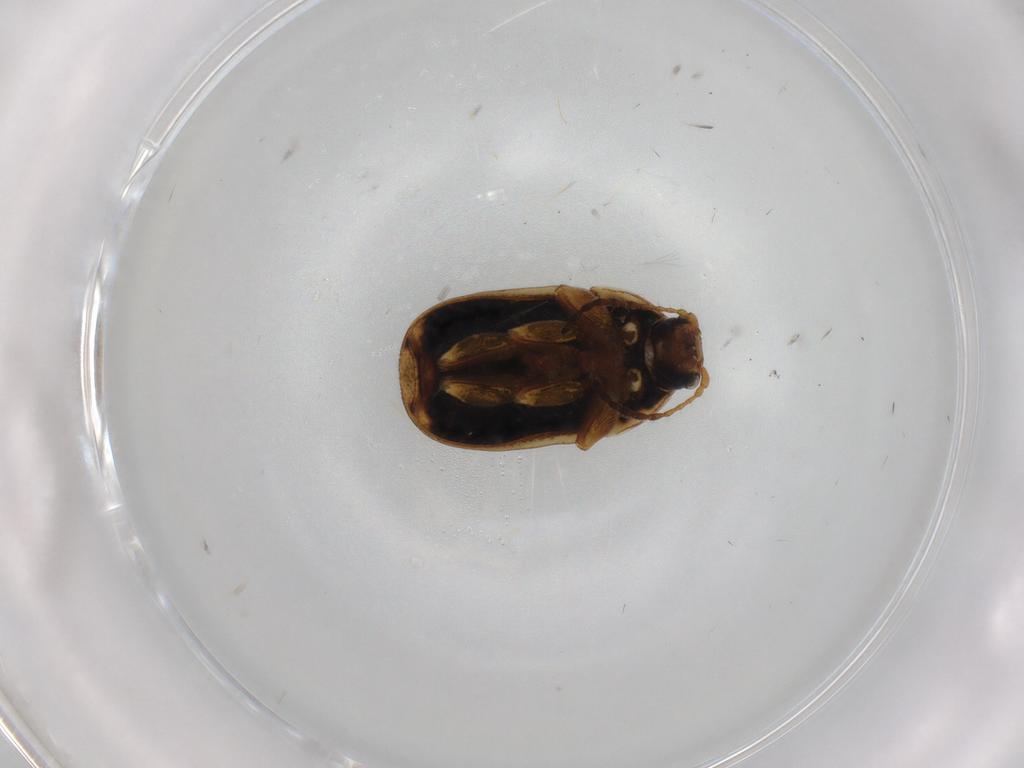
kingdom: Animalia
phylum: Arthropoda
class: Insecta
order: Coleoptera
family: Chrysomelidae
